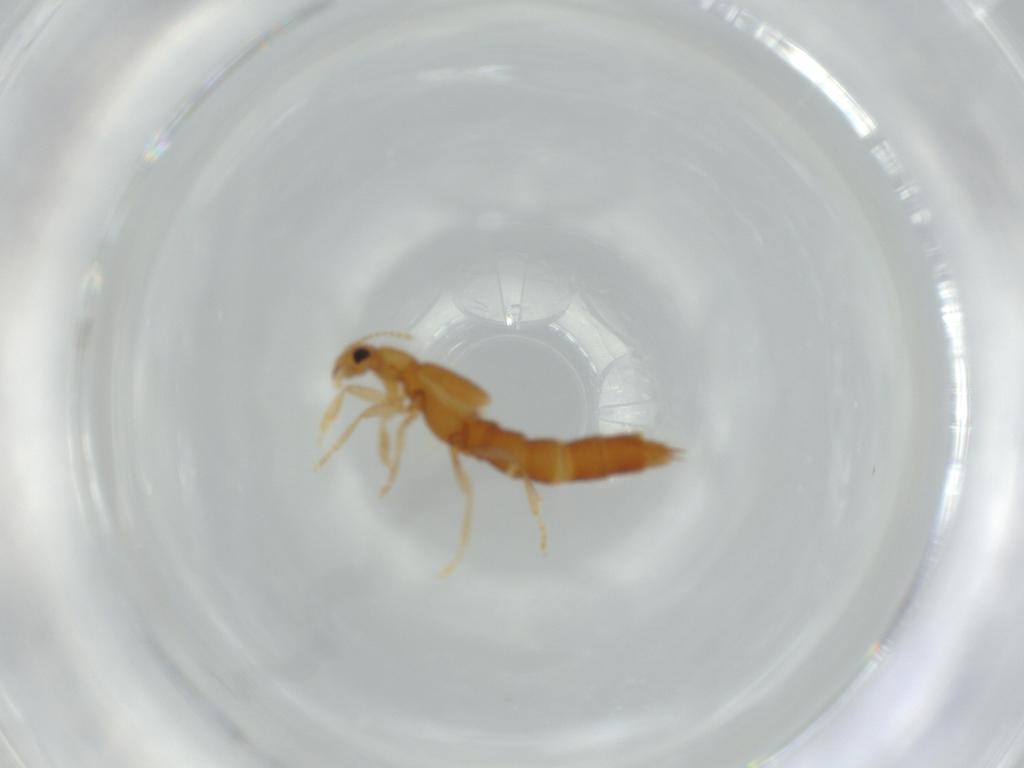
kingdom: Animalia
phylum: Arthropoda
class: Insecta
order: Coleoptera
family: Staphylinidae
